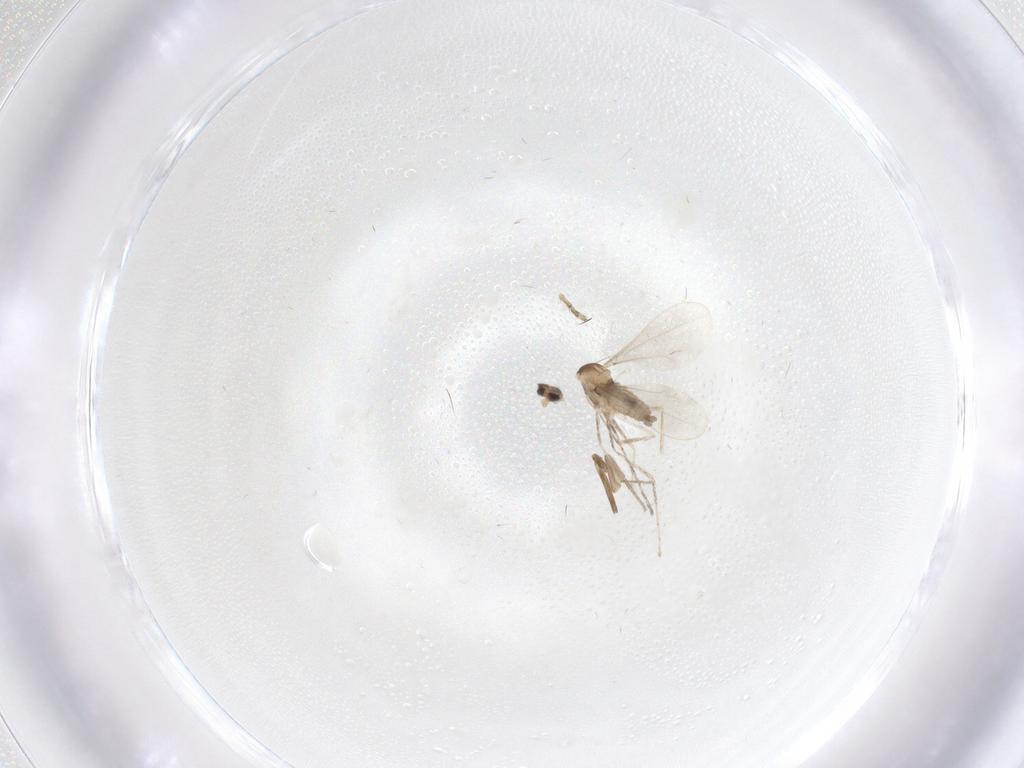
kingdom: Animalia
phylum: Arthropoda
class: Insecta
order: Diptera
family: Cecidomyiidae
